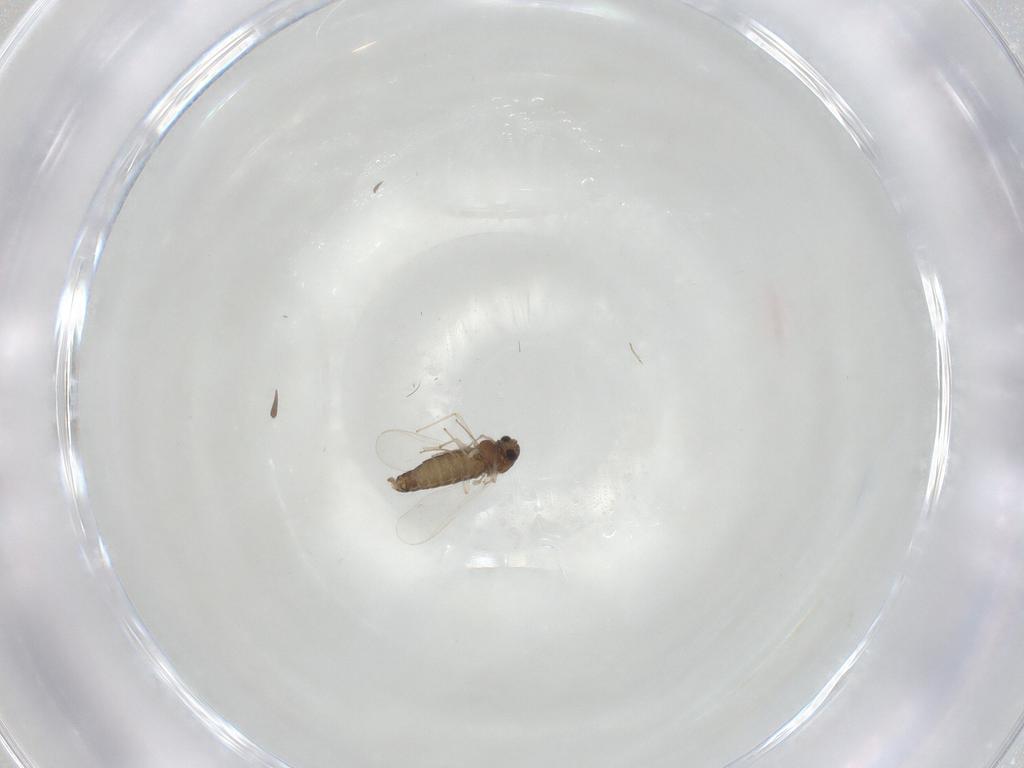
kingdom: Animalia
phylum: Arthropoda
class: Insecta
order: Diptera
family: Chironomidae
